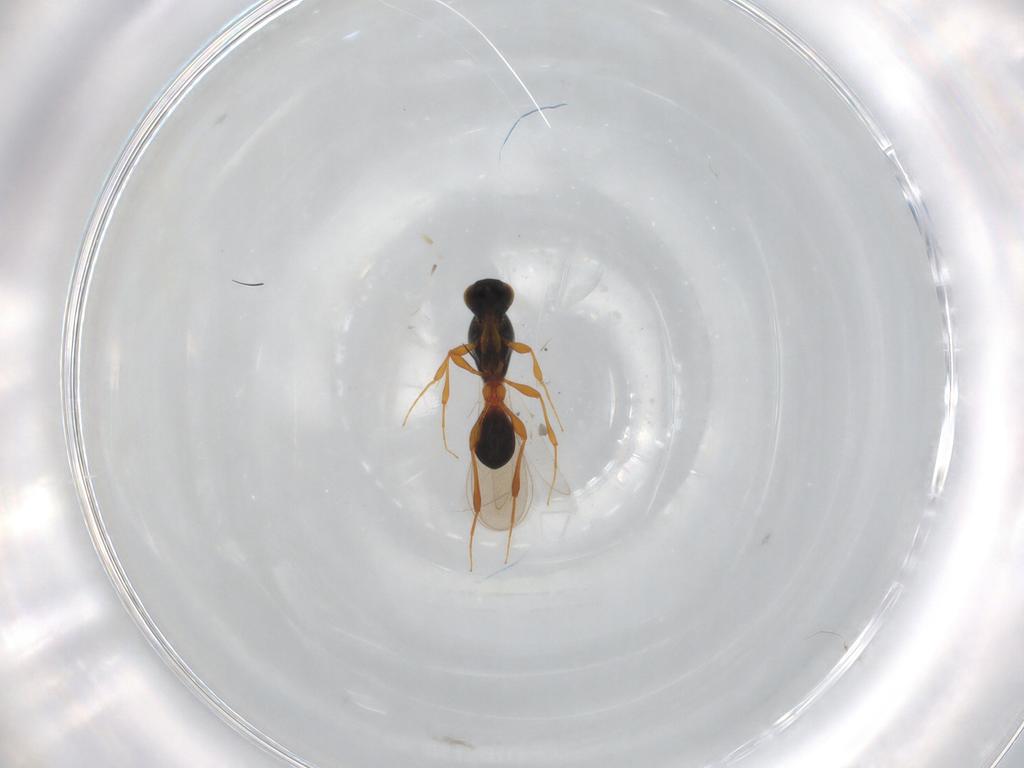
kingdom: Animalia
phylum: Arthropoda
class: Insecta
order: Hymenoptera
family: Platygastridae
